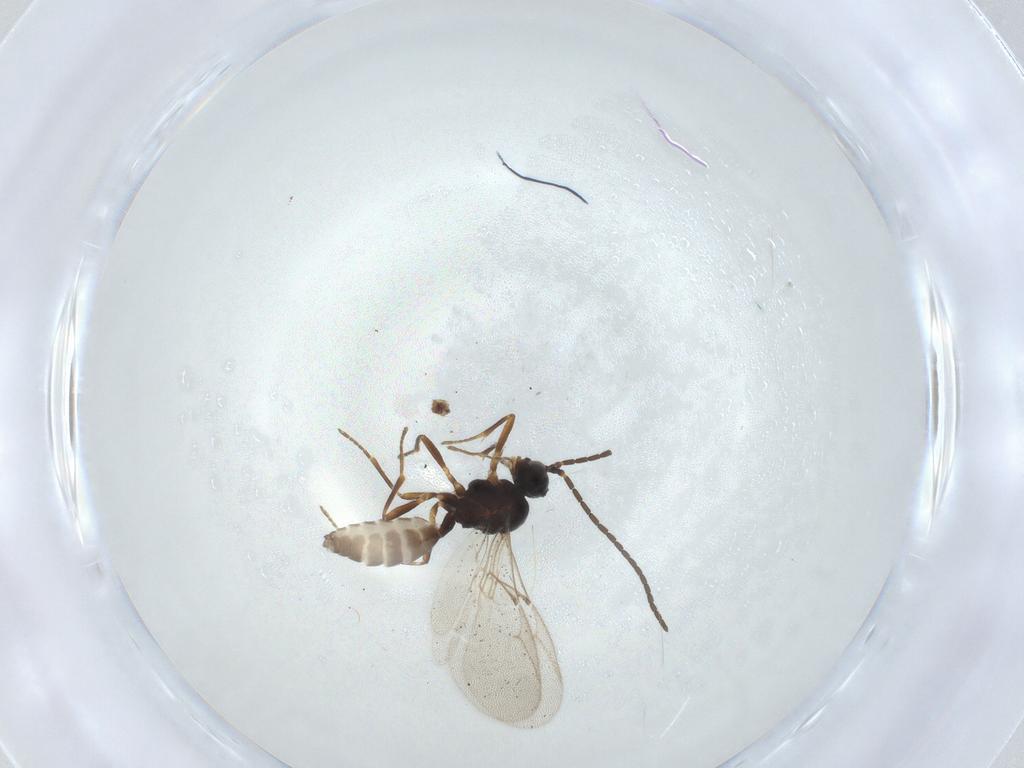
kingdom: Animalia
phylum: Arthropoda
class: Insecta
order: Hymenoptera
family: Braconidae
